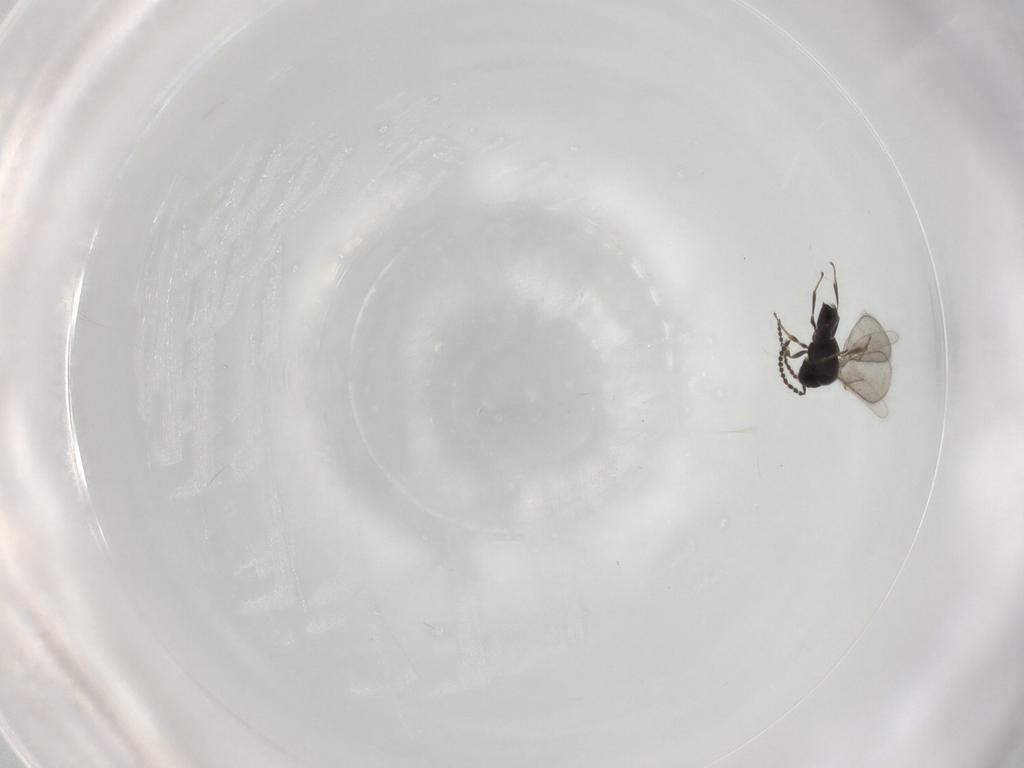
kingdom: Animalia
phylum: Arthropoda
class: Insecta
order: Hymenoptera
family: Scelionidae
